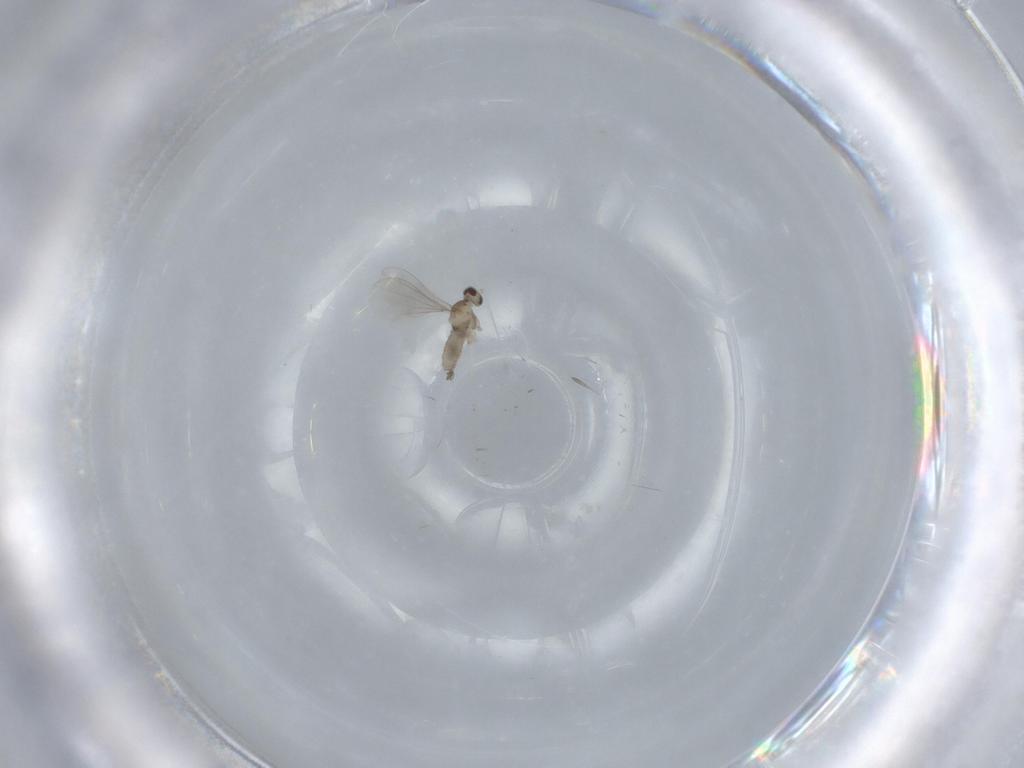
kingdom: Animalia
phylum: Arthropoda
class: Insecta
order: Diptera
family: Cecidomyiidae
